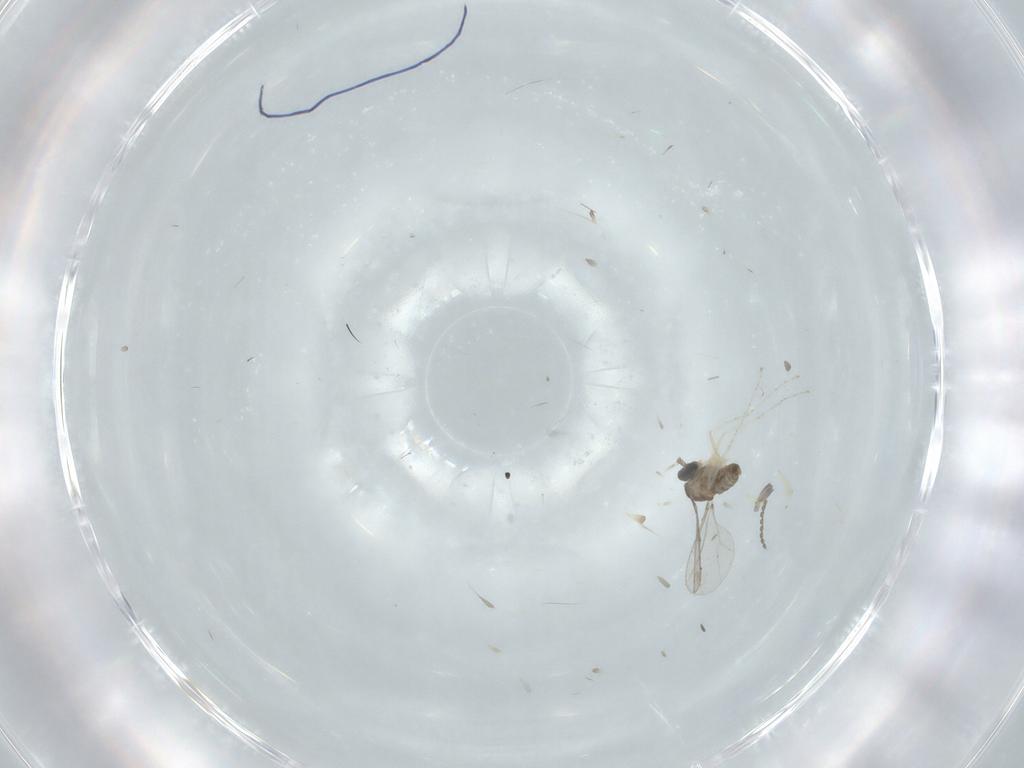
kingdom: Animalia
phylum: Arthropoda
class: Insecta
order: Diptera
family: Cecidomyiidae
